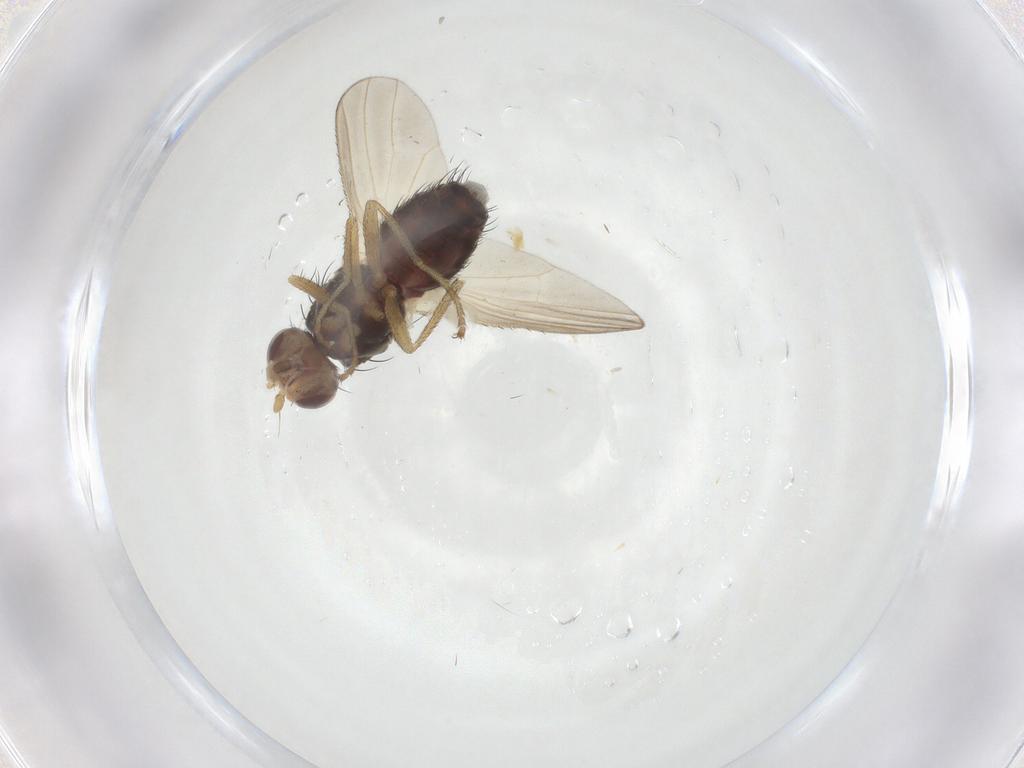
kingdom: Animalia
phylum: Arthropoda
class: Insecta
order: Diptera
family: Heleomyzidae
